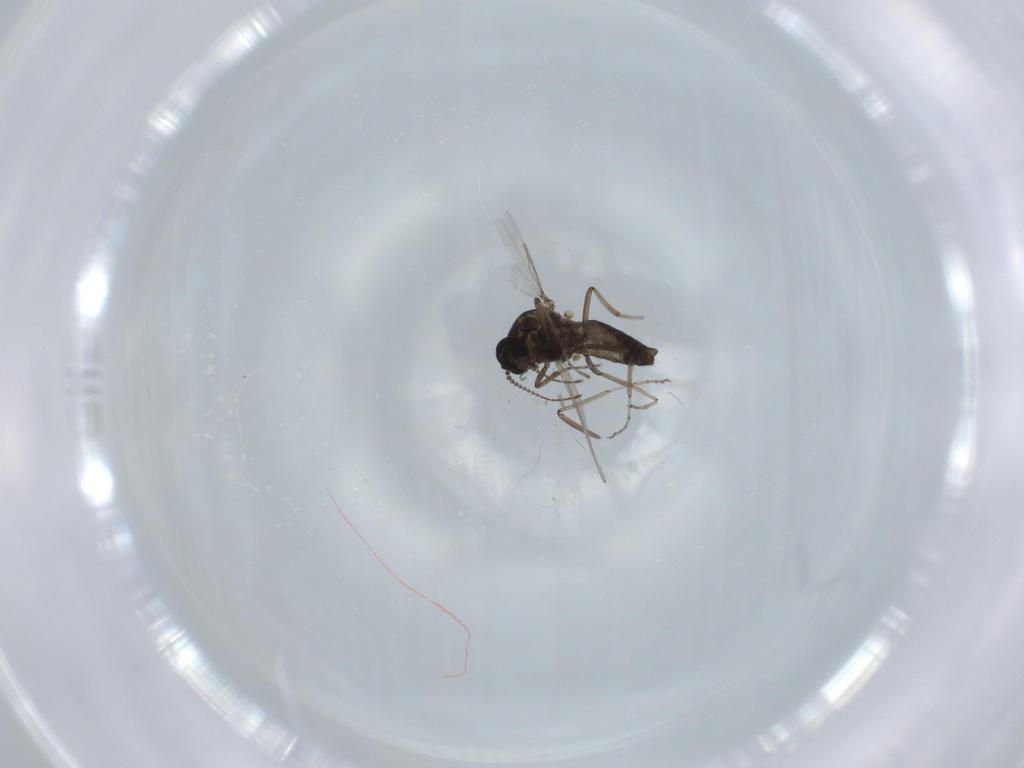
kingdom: Animalia
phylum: Arthropoda
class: Insecta
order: Diptera
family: Ceratopogonidae
